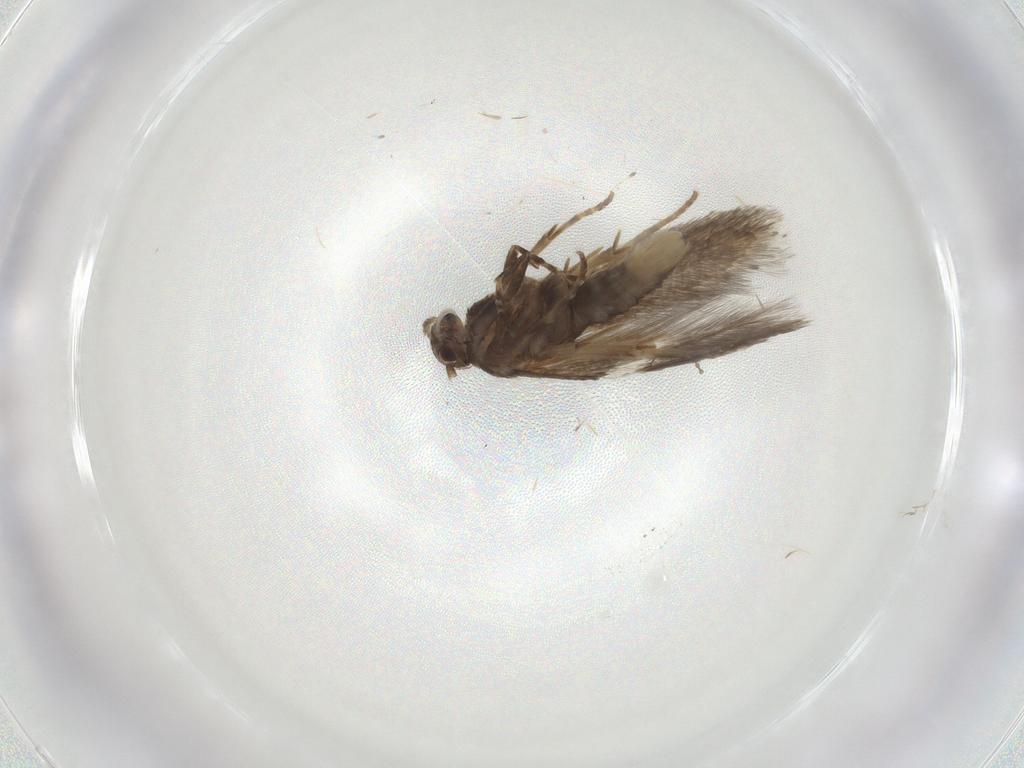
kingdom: Animalia
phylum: Arthropoda
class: Insecta
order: Lepidoptera
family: Elachistidae
